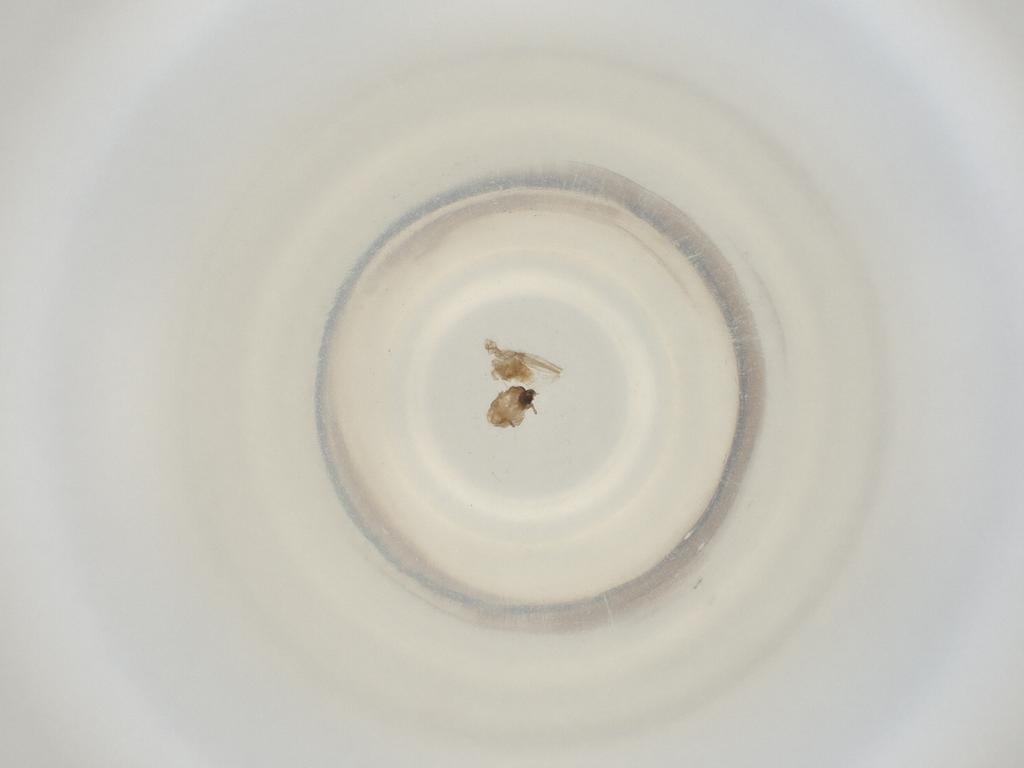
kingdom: Animalia
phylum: Arthropoda
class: Insecta
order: Diptera
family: Cecidomyiidae
